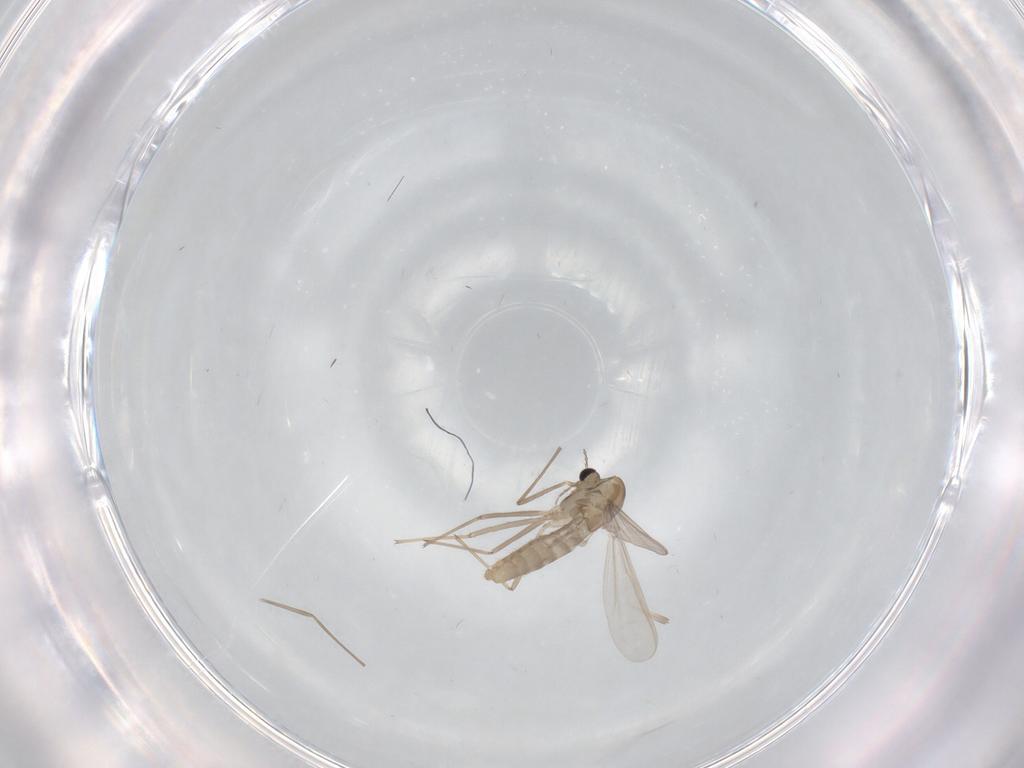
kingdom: Animalia
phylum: Arthropoda
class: Insecta
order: Diptera
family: Chironomidae
